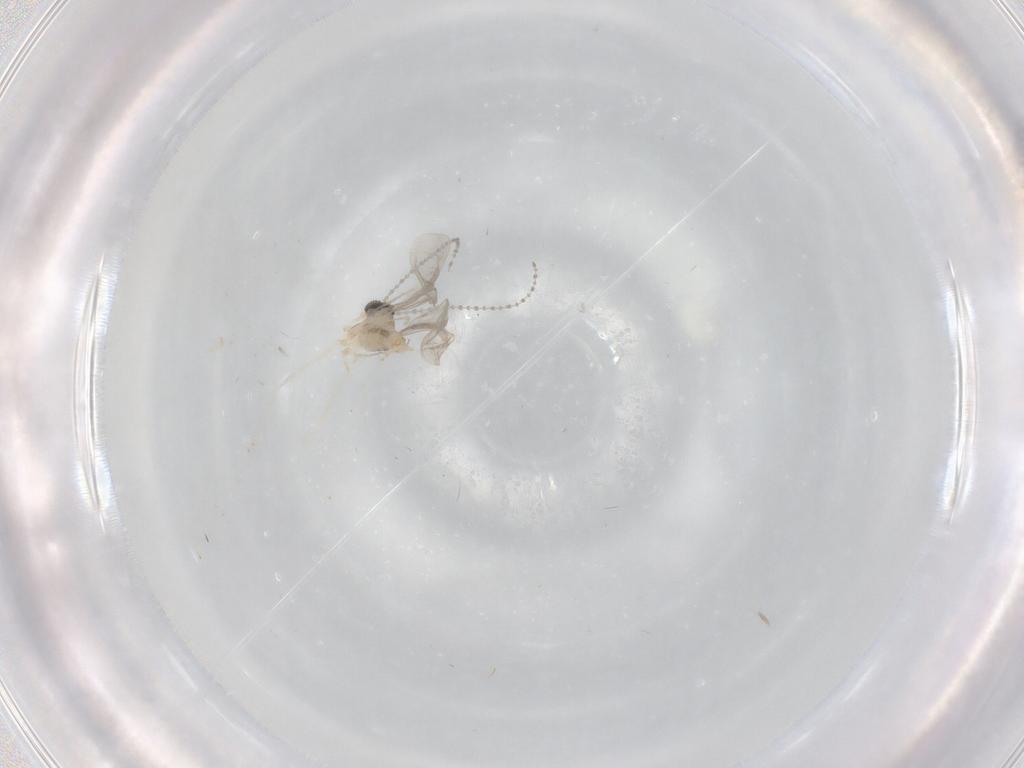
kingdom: Animalia
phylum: Arthropoda
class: Insecta
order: Diptera
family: Cecidomyiidae
